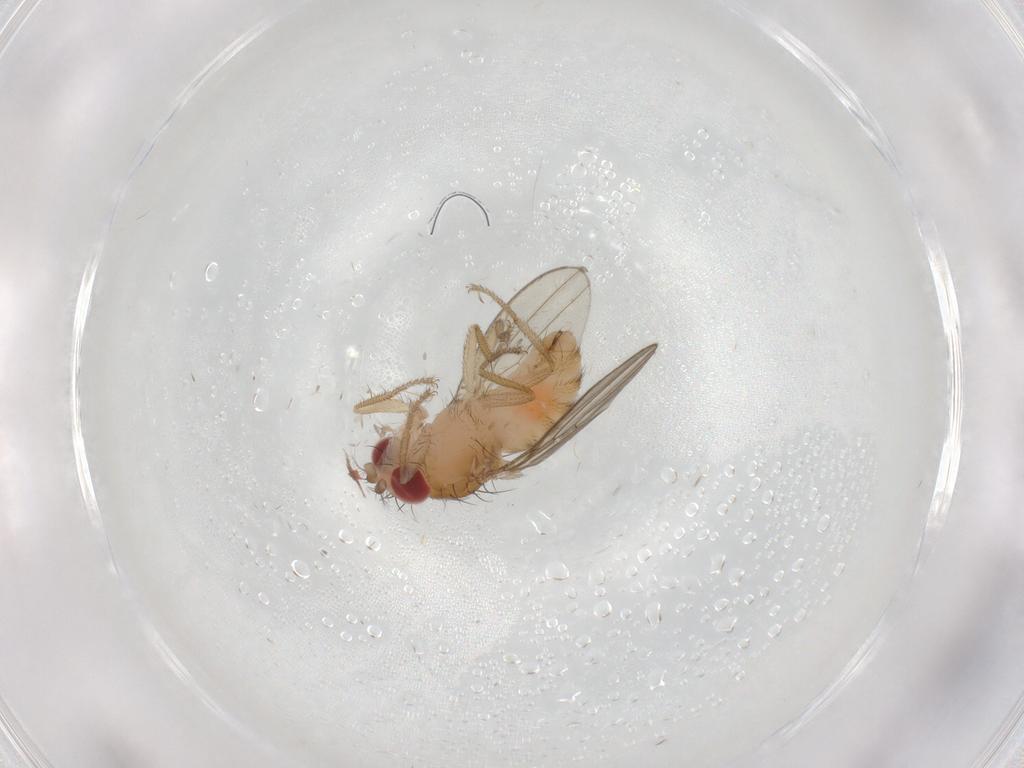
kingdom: Animalia
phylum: Arthropoda
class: Insecta
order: Diptera
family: Drosophilidae
